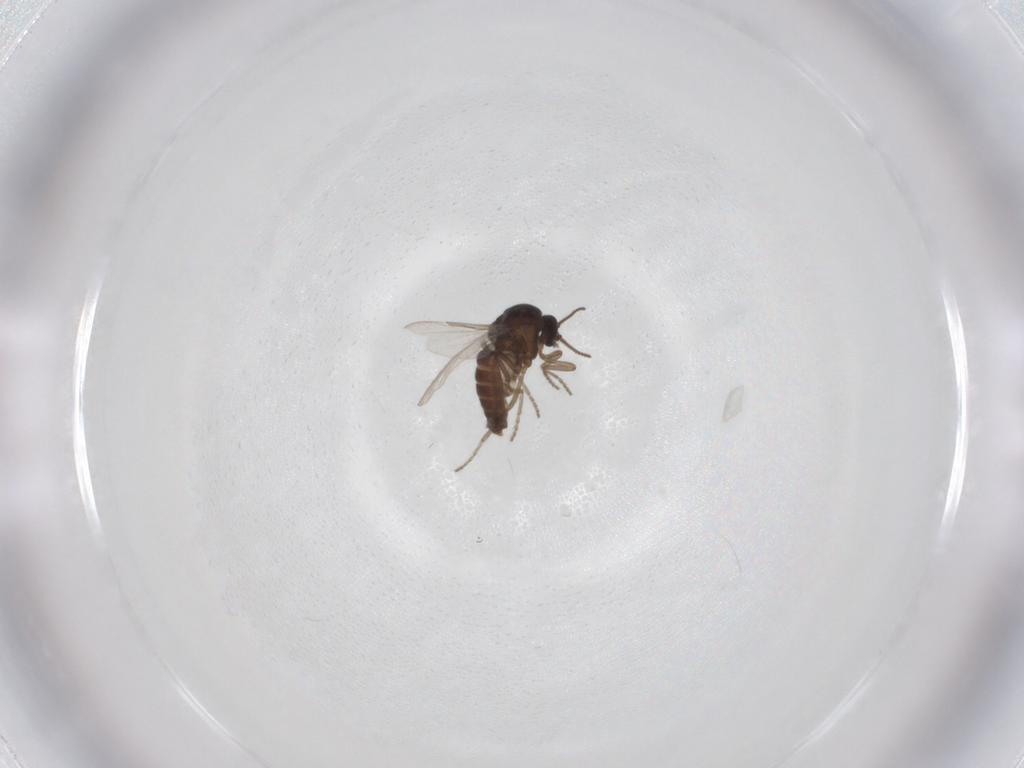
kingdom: Animalia
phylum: Arthropoda
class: Insecta
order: Diptera
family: Ceratopogonidae
